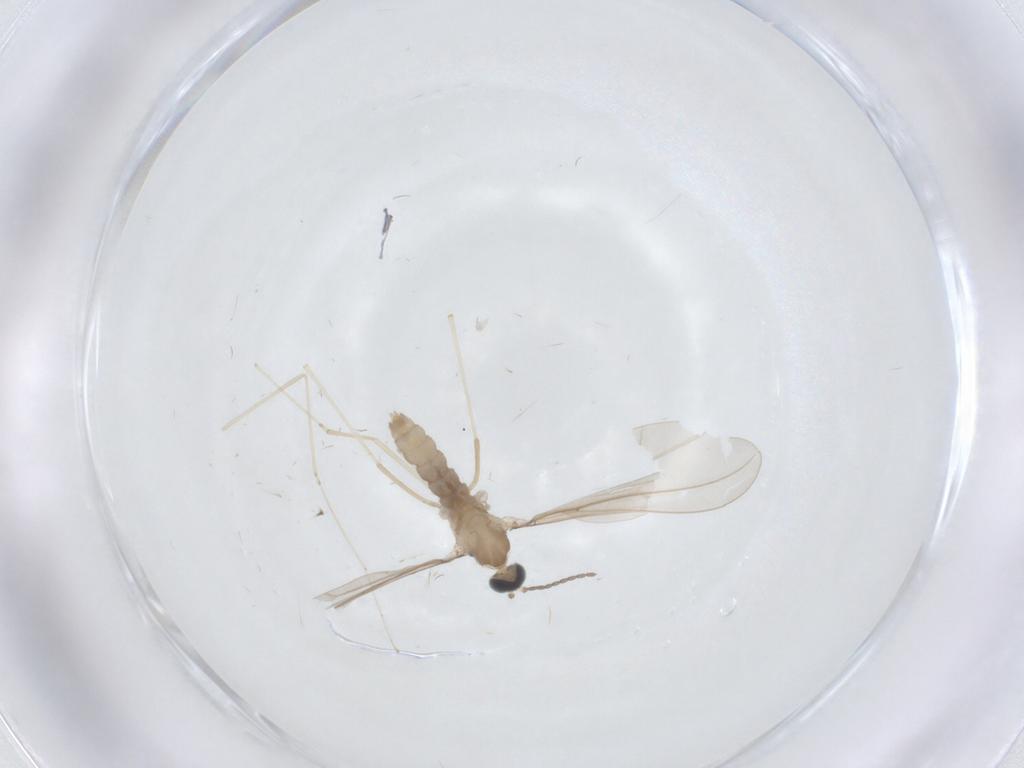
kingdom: Animalia
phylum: Arthropoda
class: Insecta
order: Diptera
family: Cecidomyiidae
